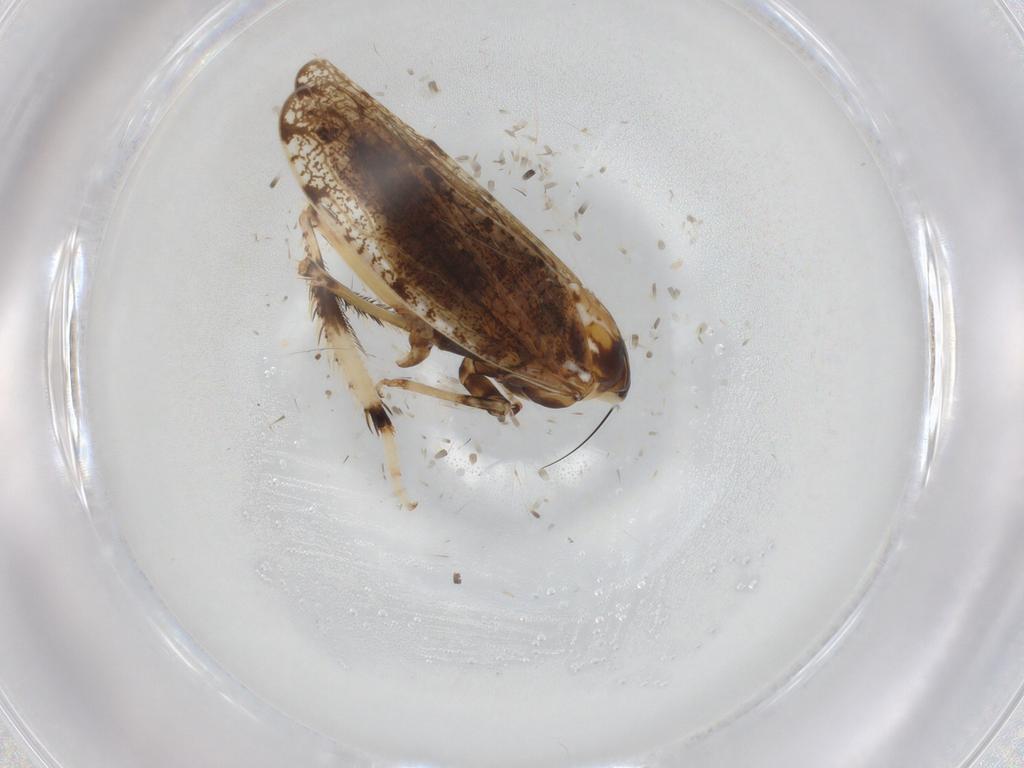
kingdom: Animalia
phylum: Arthropoda
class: Insecta
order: Hemiptera
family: Cicadellidae
